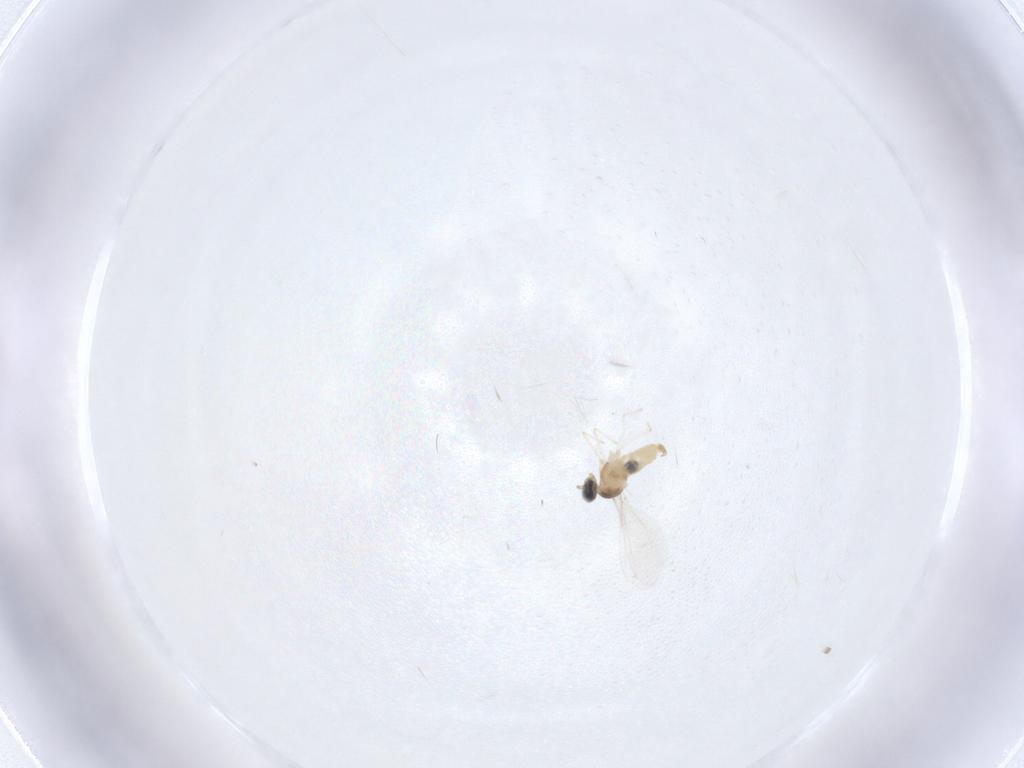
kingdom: Animalia
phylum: Arthropoda
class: Insecta
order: Diptera
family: Cecidomyiidae
